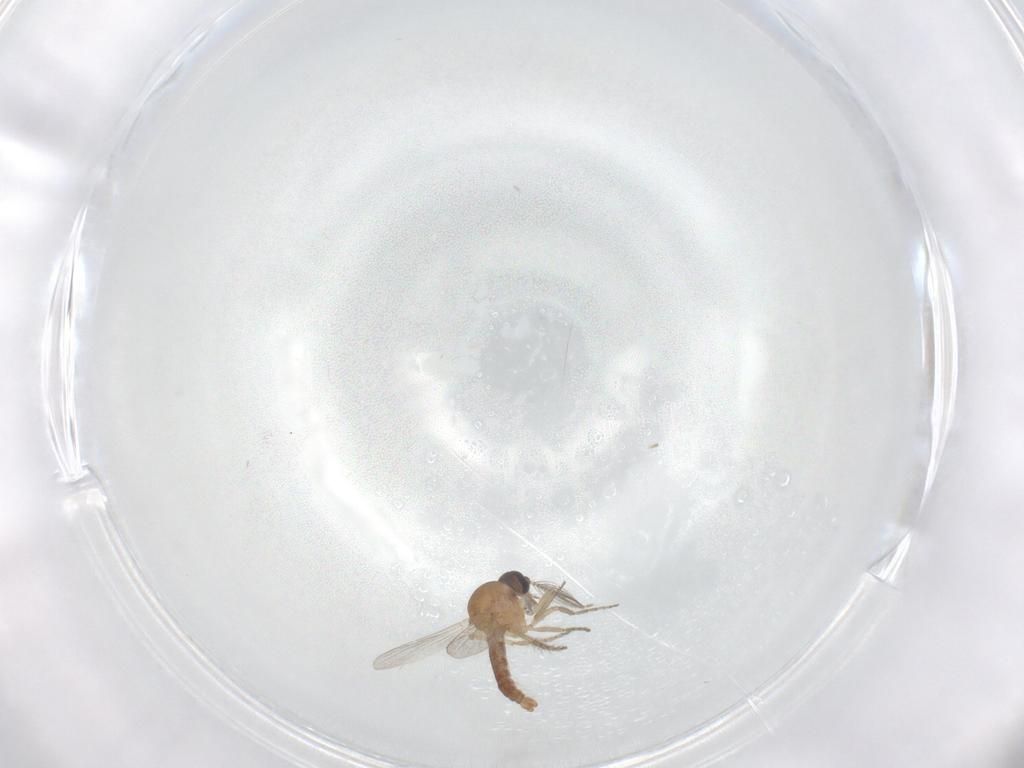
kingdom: Animalia
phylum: Arthropoda
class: Insecta
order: Diptera
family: Ceratopogonidae
